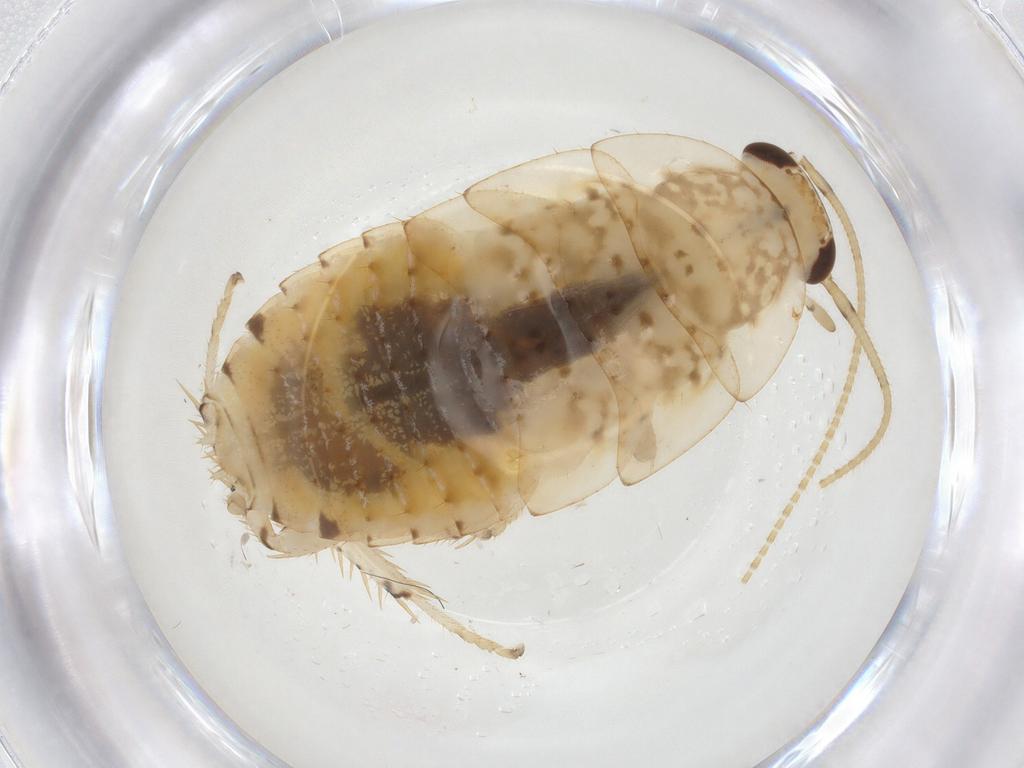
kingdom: Animalia
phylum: Arthropoda
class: Insecta
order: Blattodea
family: Ectobiidae
